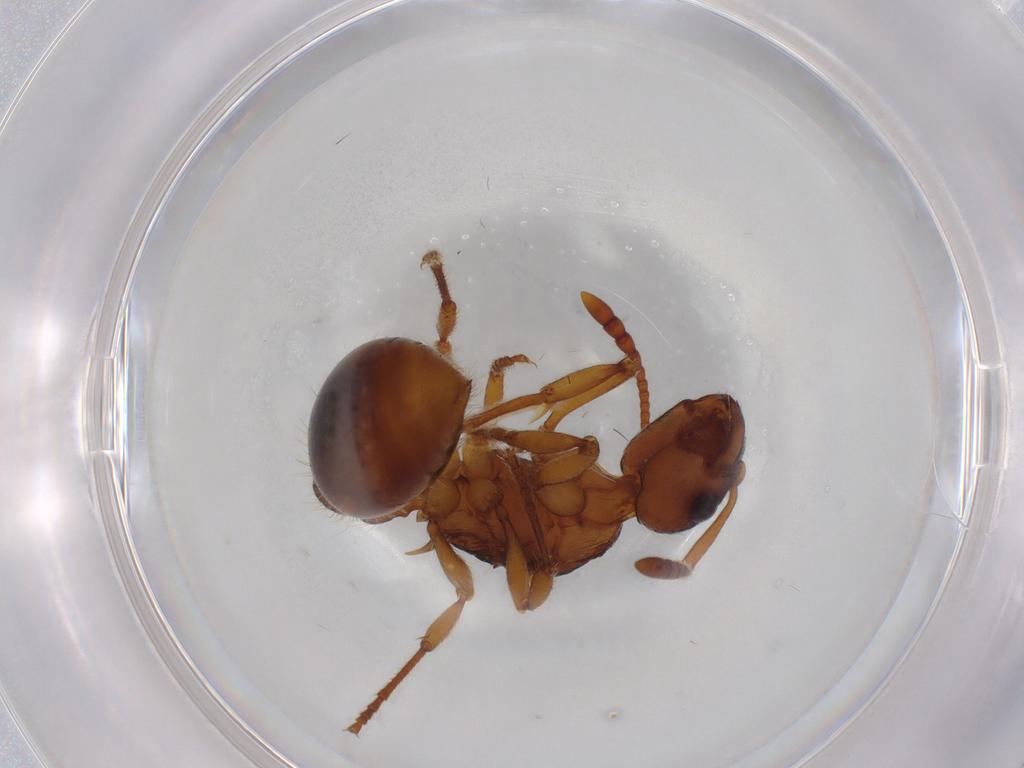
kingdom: Animalia
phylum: Arthropoda
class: Insecta
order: Hymenoptera
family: Formicidae
